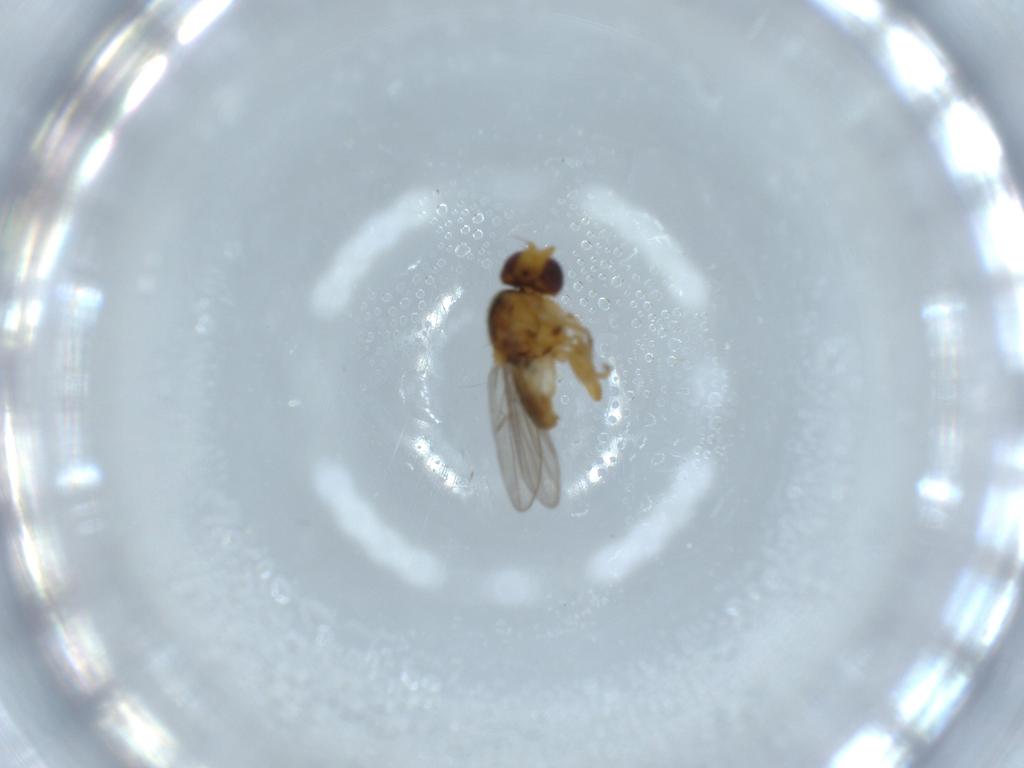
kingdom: Animalia
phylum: Arthropoda
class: Insecta
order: Diptera
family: Chloropidae
